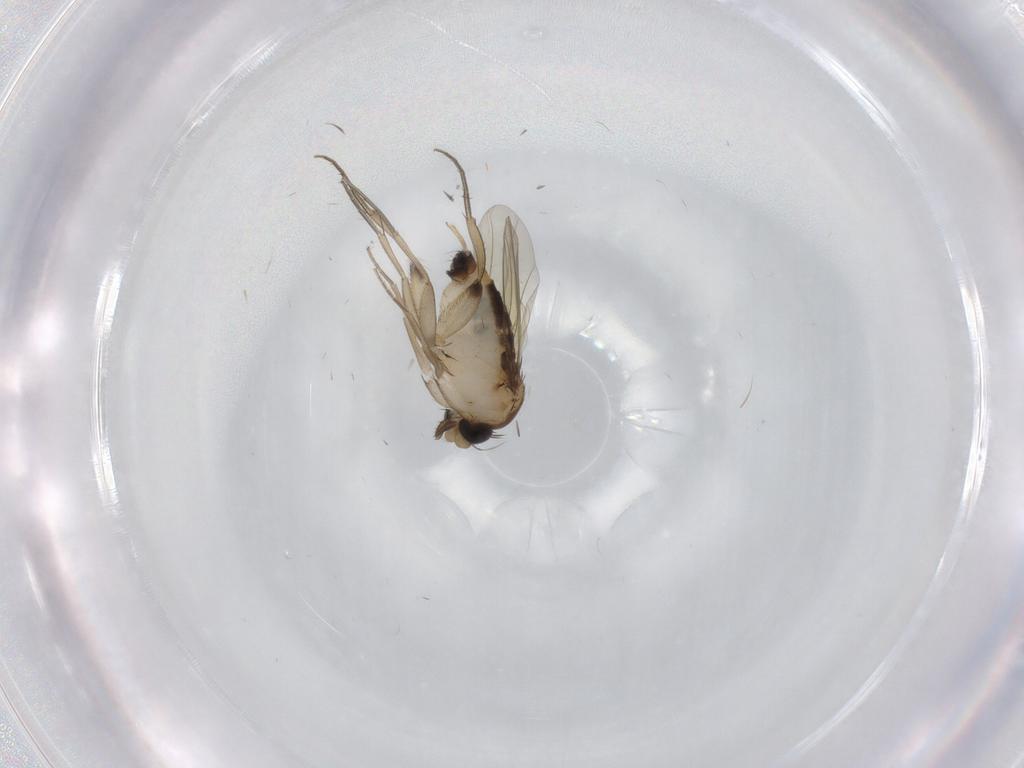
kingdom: Animalia
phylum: Arthropoda
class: Insecta
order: Diptera
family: Phoridae
